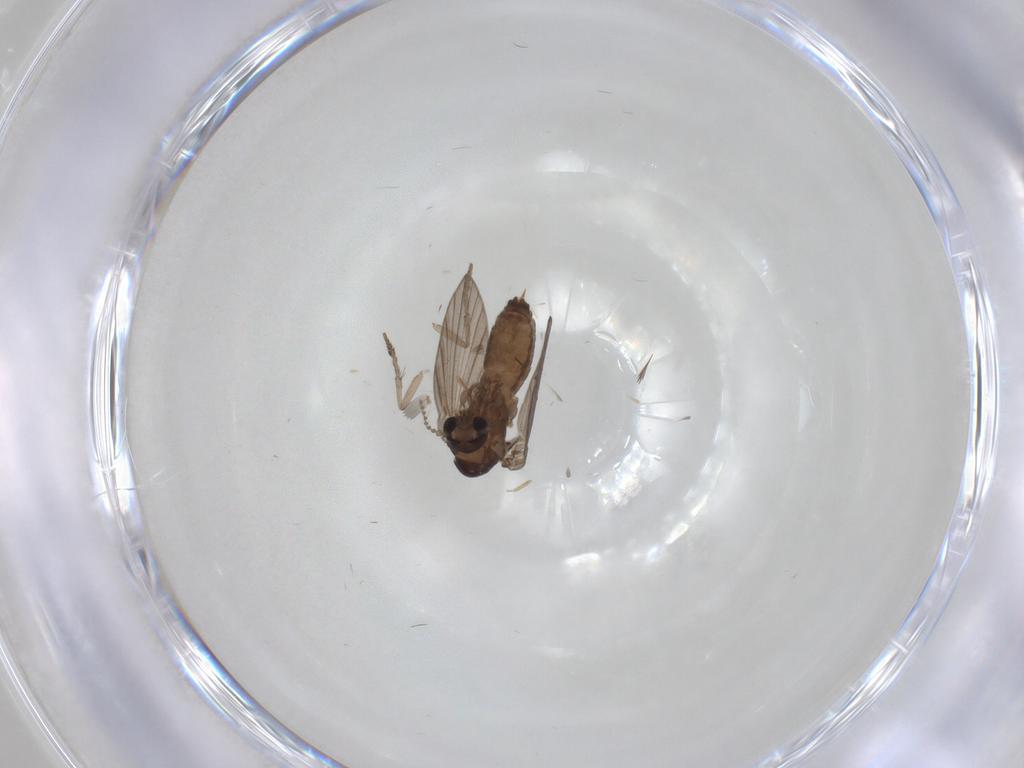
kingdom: Animalia
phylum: Arthropoda
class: Insecta
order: Diptera
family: Psychodidae
